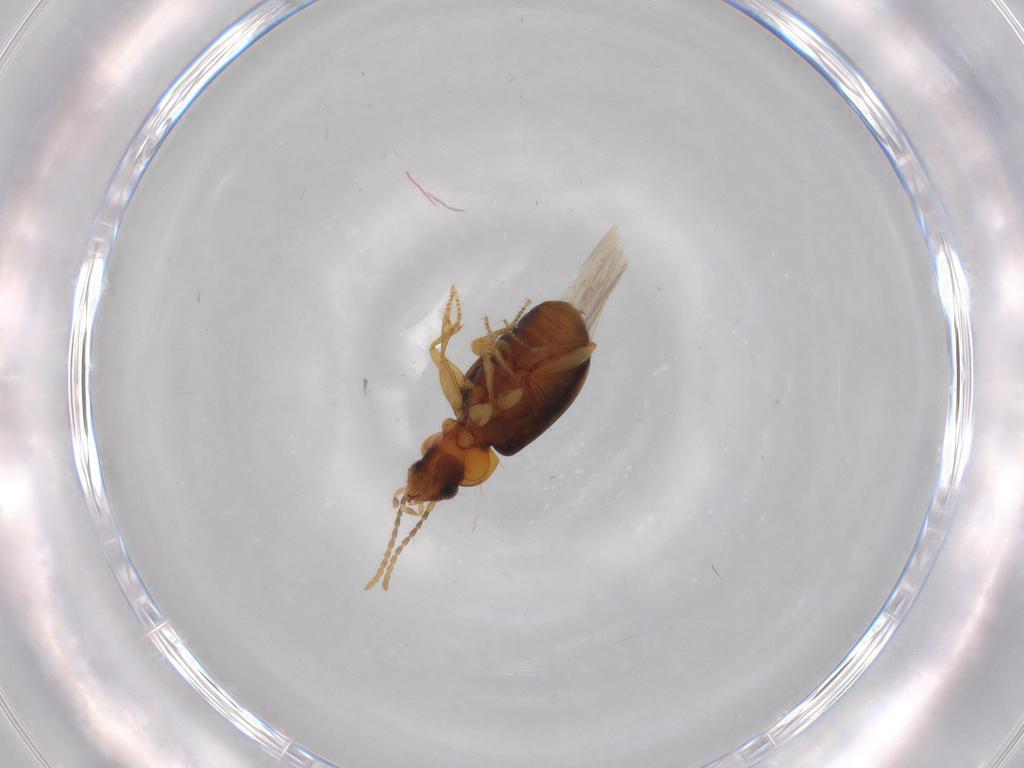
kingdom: Animalia
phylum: Arthropoda
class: Insecta
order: Coleoptera
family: Carabidae
